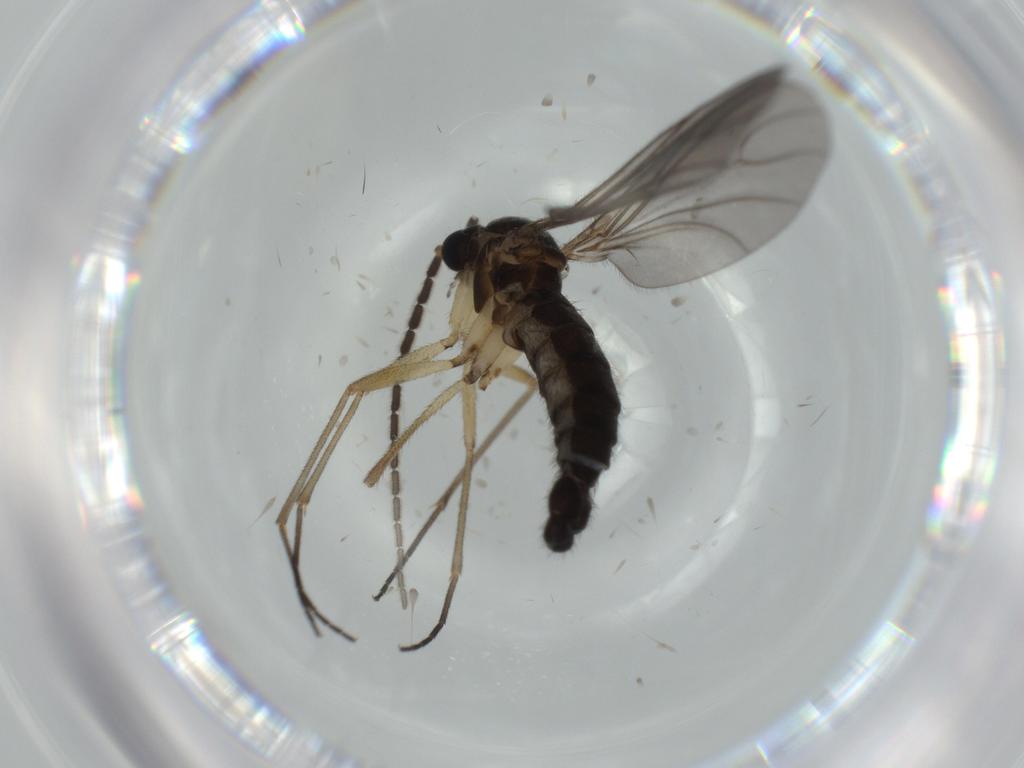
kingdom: Animalia
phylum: Arthropoda
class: Insecta
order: Diptera
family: Sciaridae
